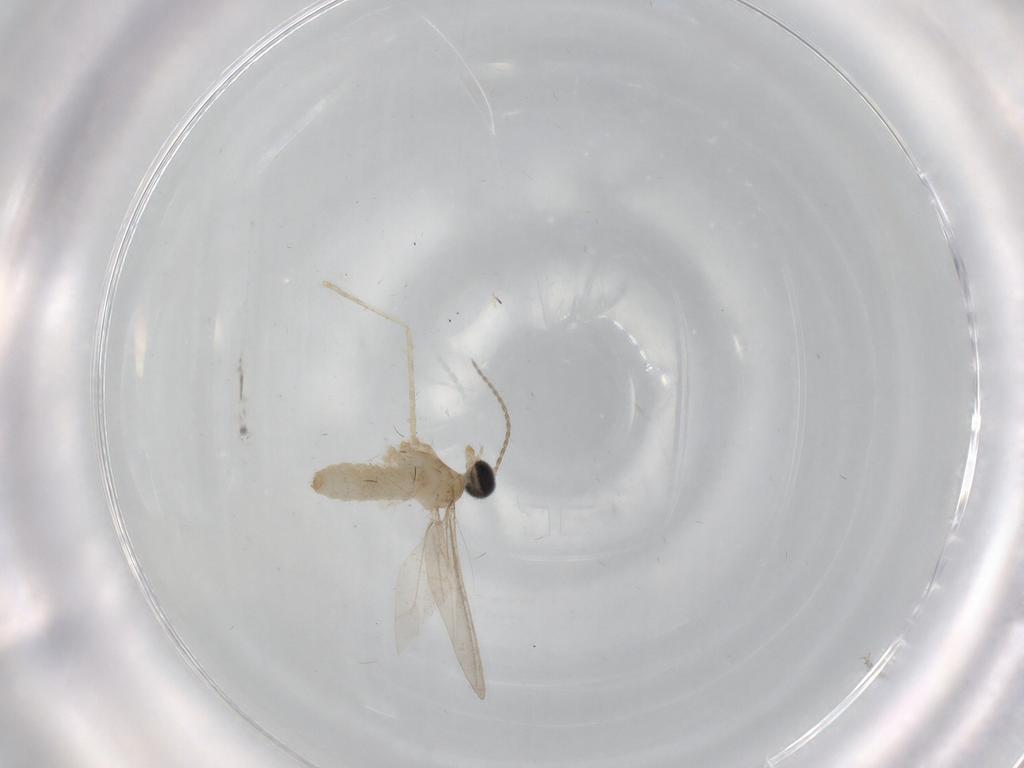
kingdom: Animalia
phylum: Arthropoda
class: Insecta
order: Diptera
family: Cecidomyiidae
